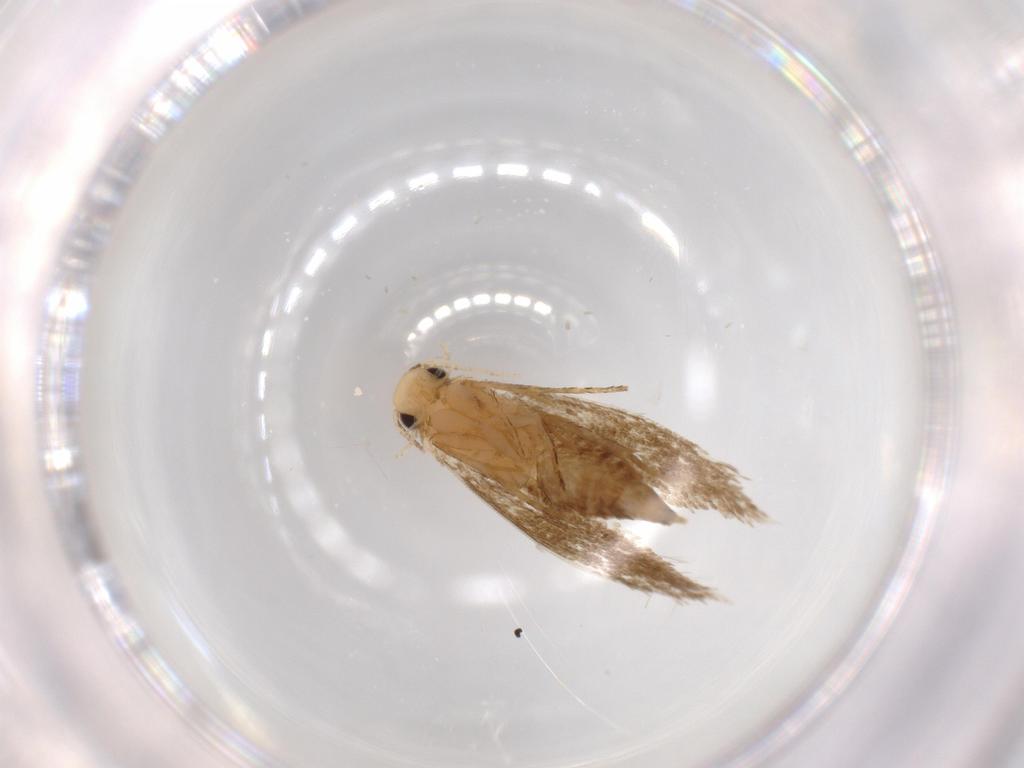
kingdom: Animalia
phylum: Arthropoda
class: Insecta
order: Lepidoptera
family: Tineidae
